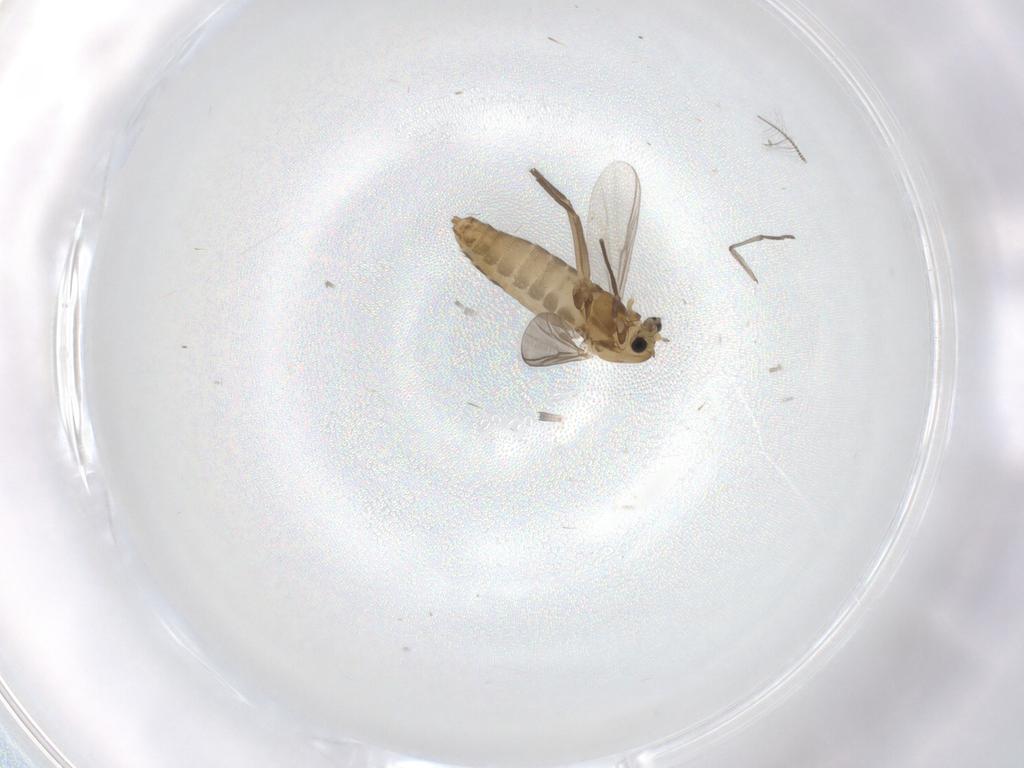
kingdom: Animalia
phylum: Arthropoda
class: Insecta
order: Diptera
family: Chironomidae
